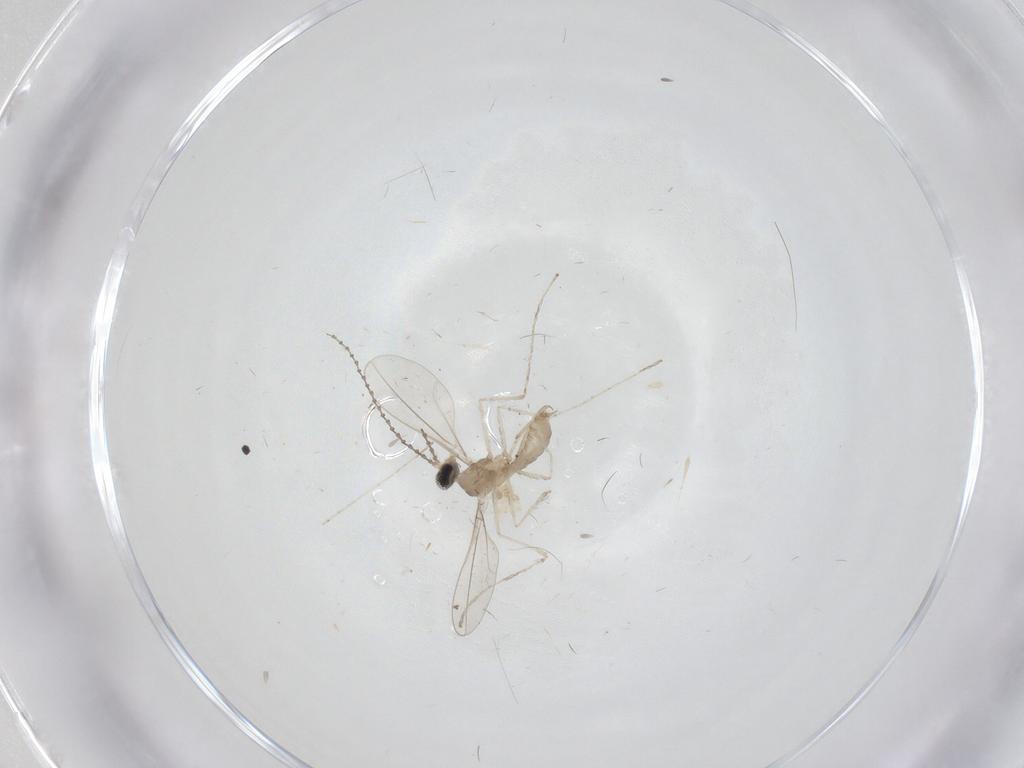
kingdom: Animalia
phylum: Arthropoda
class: Insecta
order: Diptera
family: Cecidomyiidae
